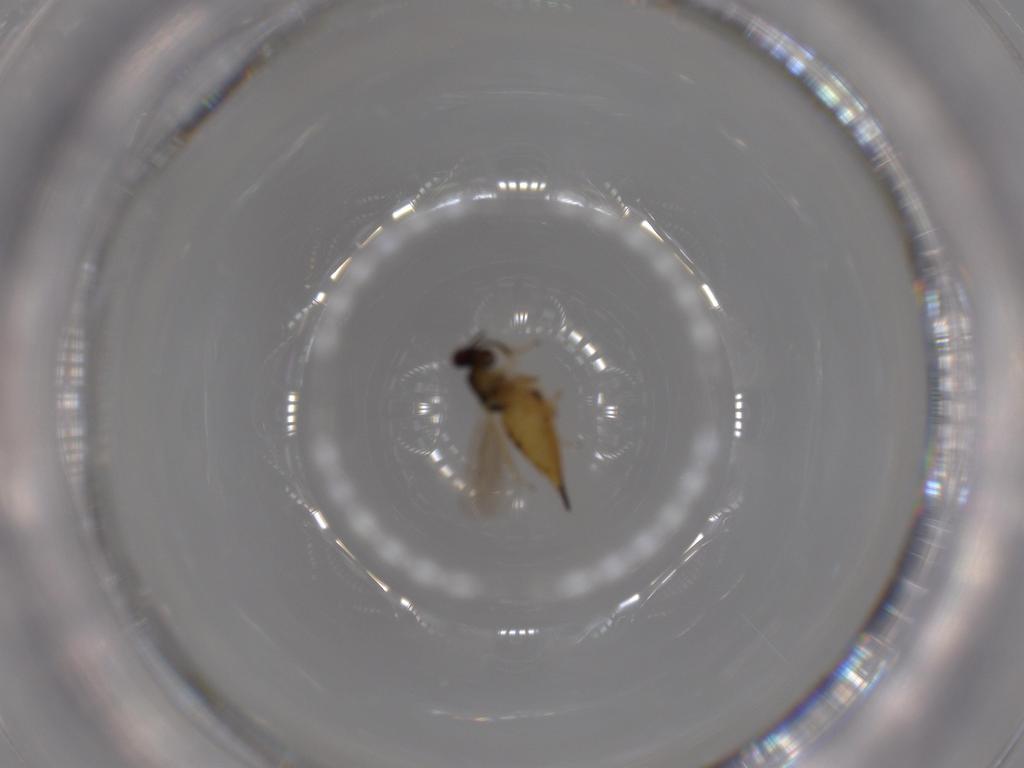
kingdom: Animalia
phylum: Arthropoda
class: Insecta
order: Hymenoptera
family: Eulophidae
